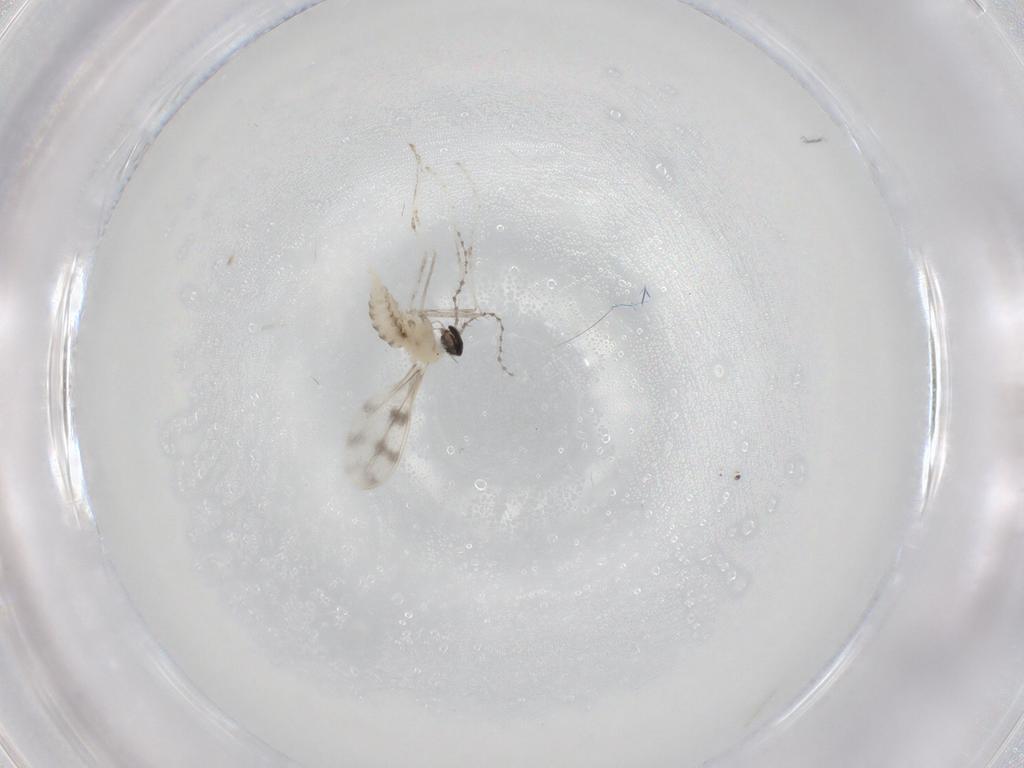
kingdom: Animalia
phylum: Arthropoda
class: Insecta
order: Diptera
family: Cecidomyiidae
